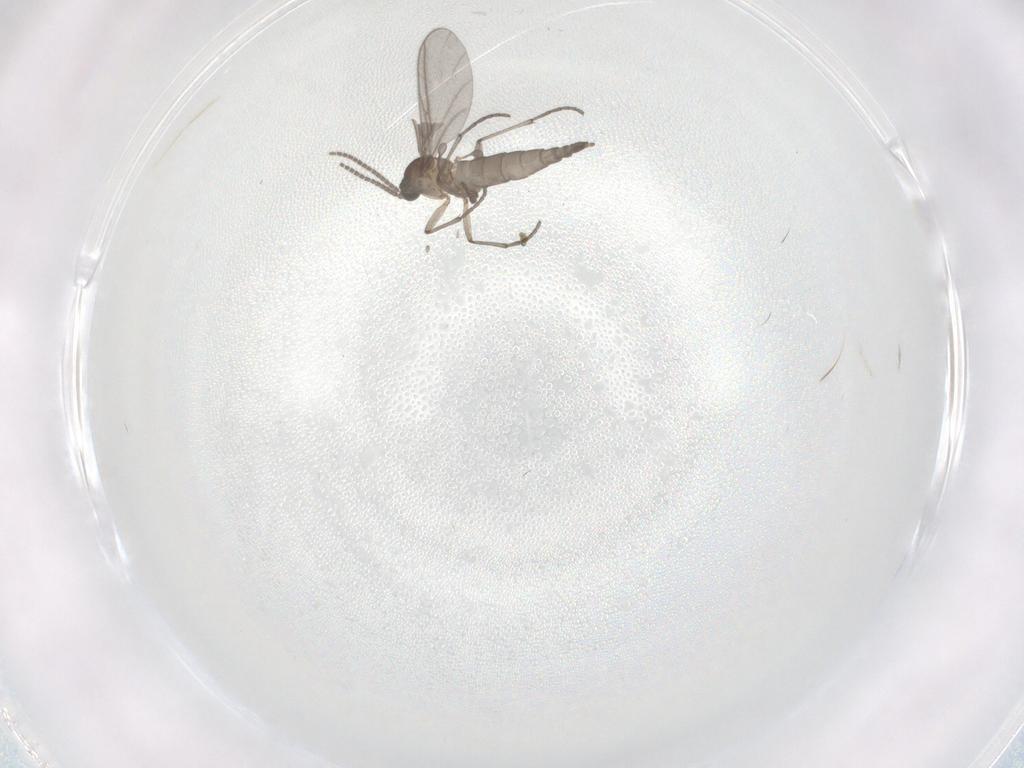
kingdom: Animalia
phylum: Arthropoda
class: Insecta
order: Diptera
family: Sciaridae
